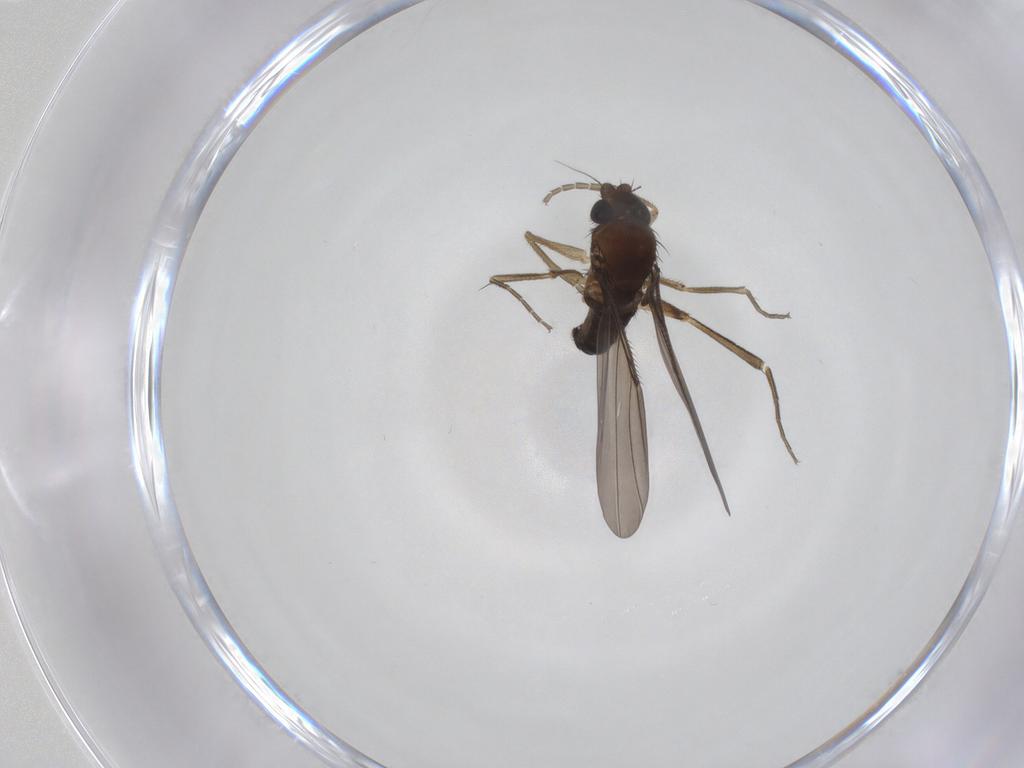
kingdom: Animalia
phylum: Arthropoda
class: Insecta
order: Diptera
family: Phoridae
